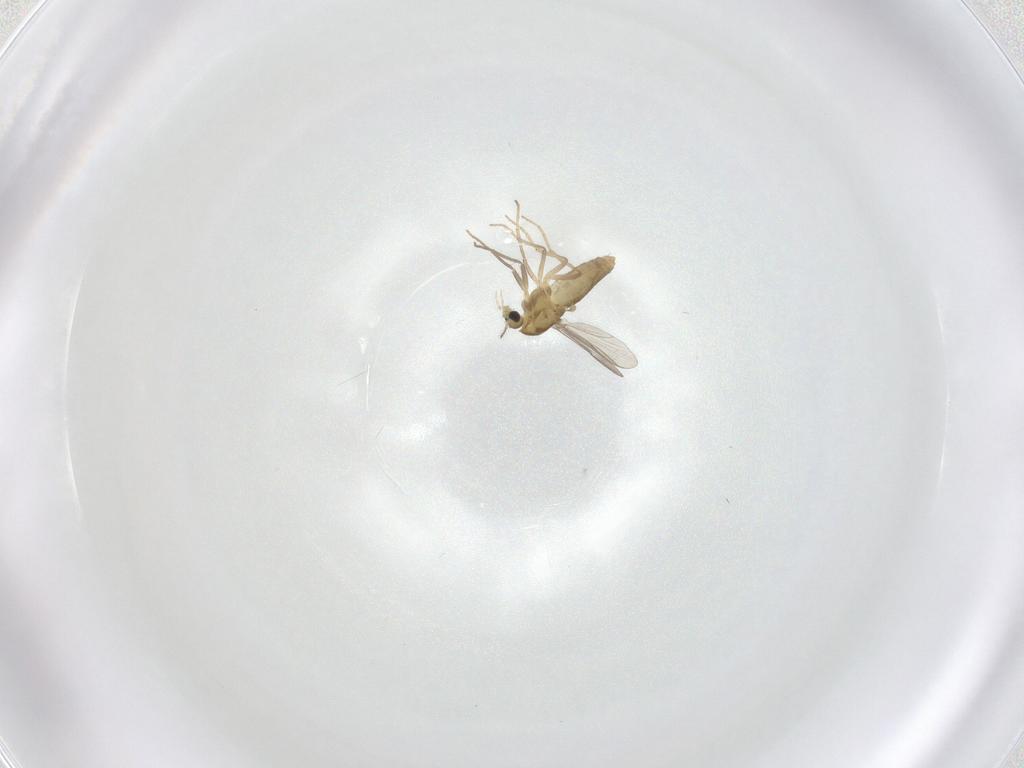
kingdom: Animalia
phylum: Arthropoda
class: Insecta
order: Diptera
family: Chironomidae
